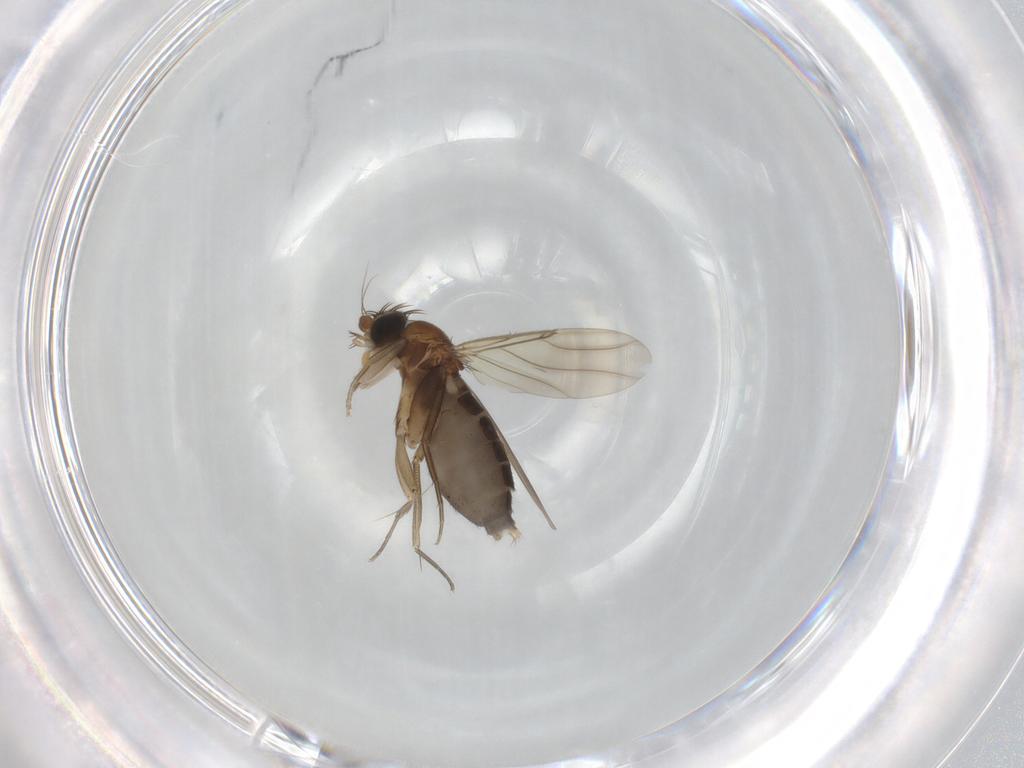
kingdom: Animalia
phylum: Arthropoda
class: Insecta
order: Diptera
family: Phoridae
